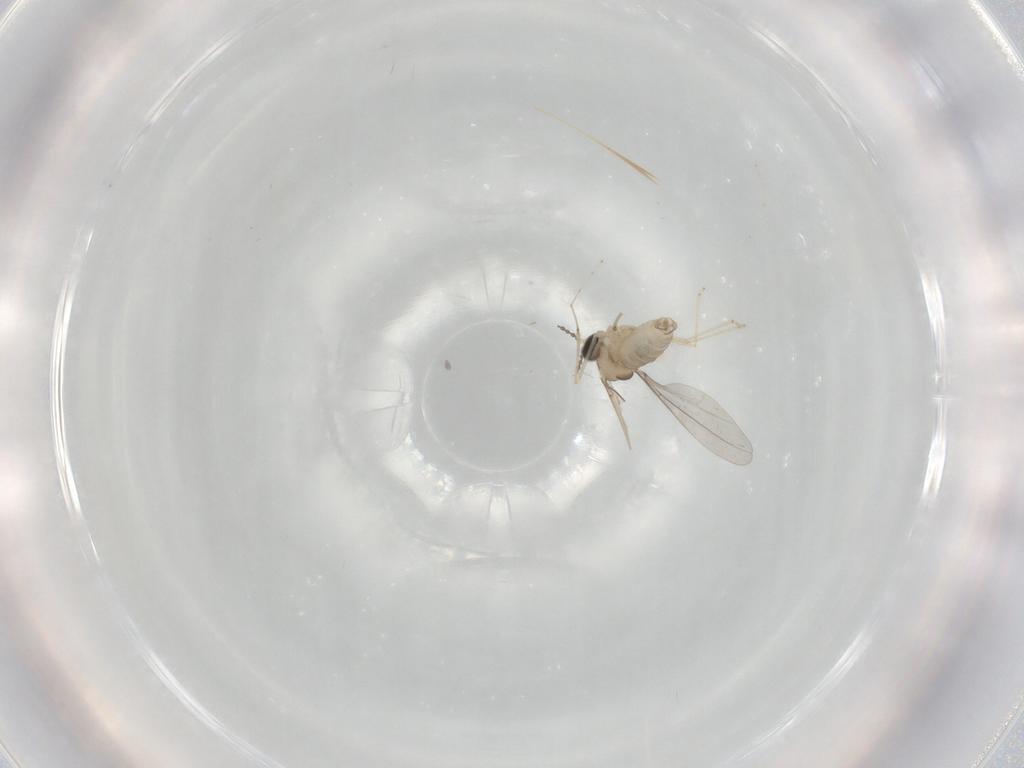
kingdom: Animalia
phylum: Arthropoda
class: Insecta
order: Diptera
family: Cecidomyiidae
